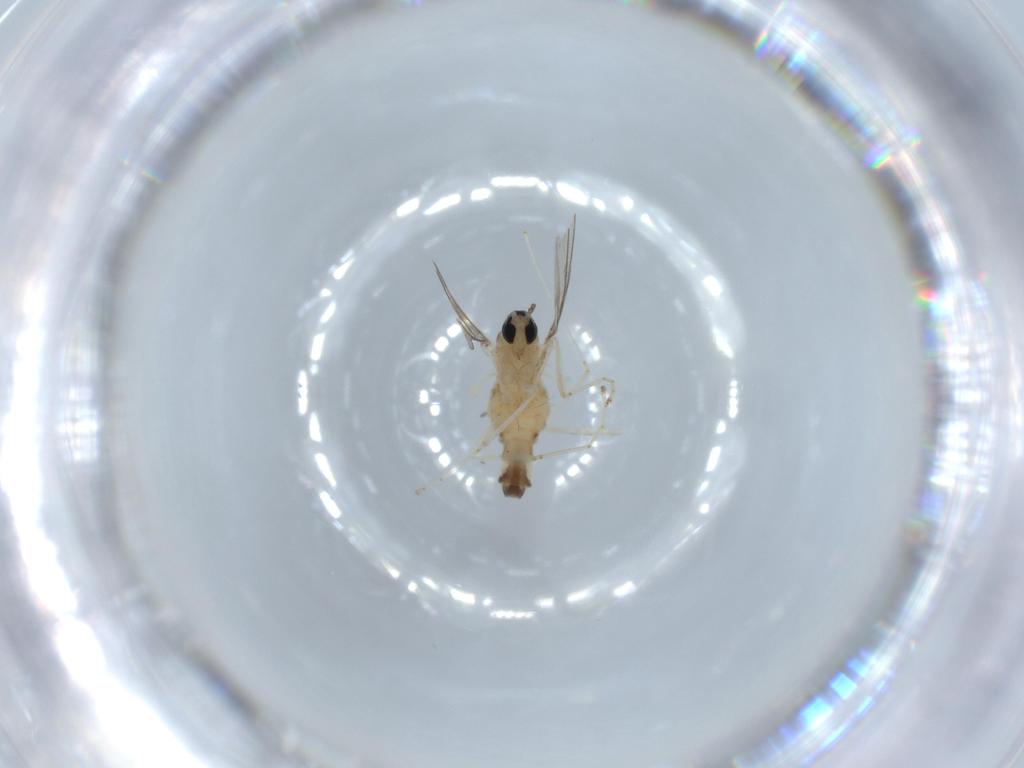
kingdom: Animalia
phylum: Arthropoda
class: Insecta
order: Diptera
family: Cecidomyiidae
